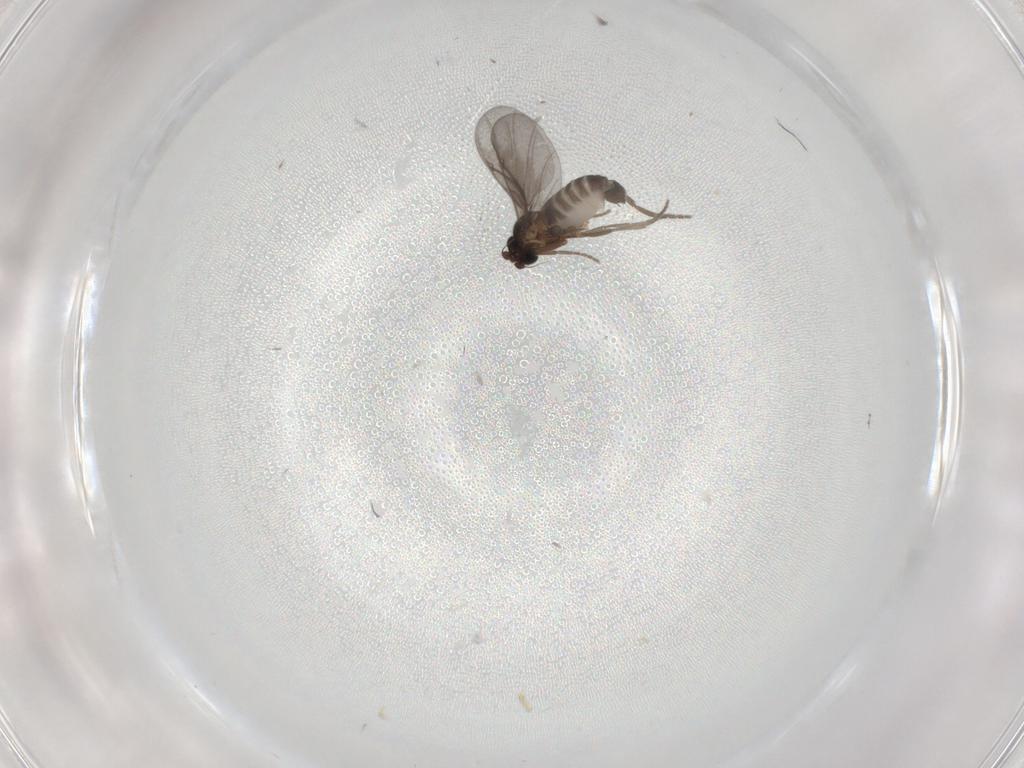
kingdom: Animalia
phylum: Arthropoda
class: Insecta
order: Diptera
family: Phoridae
